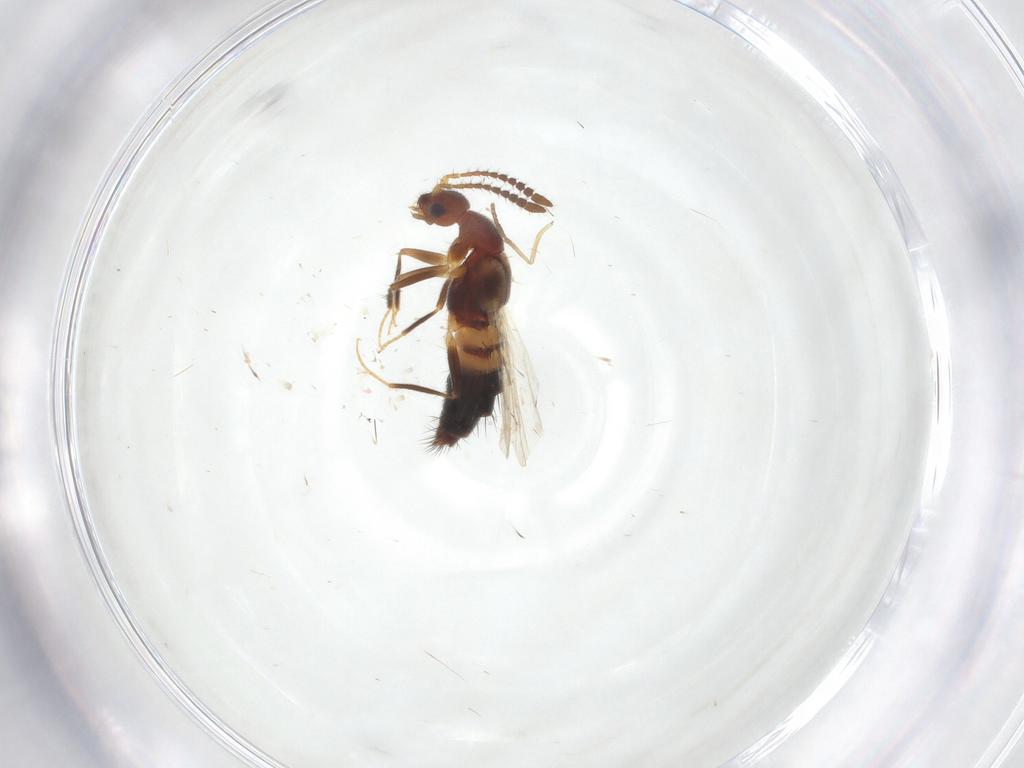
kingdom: Animalia
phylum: Arthropoda
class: Insecta
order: Coleoptera
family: Staphylinidae
